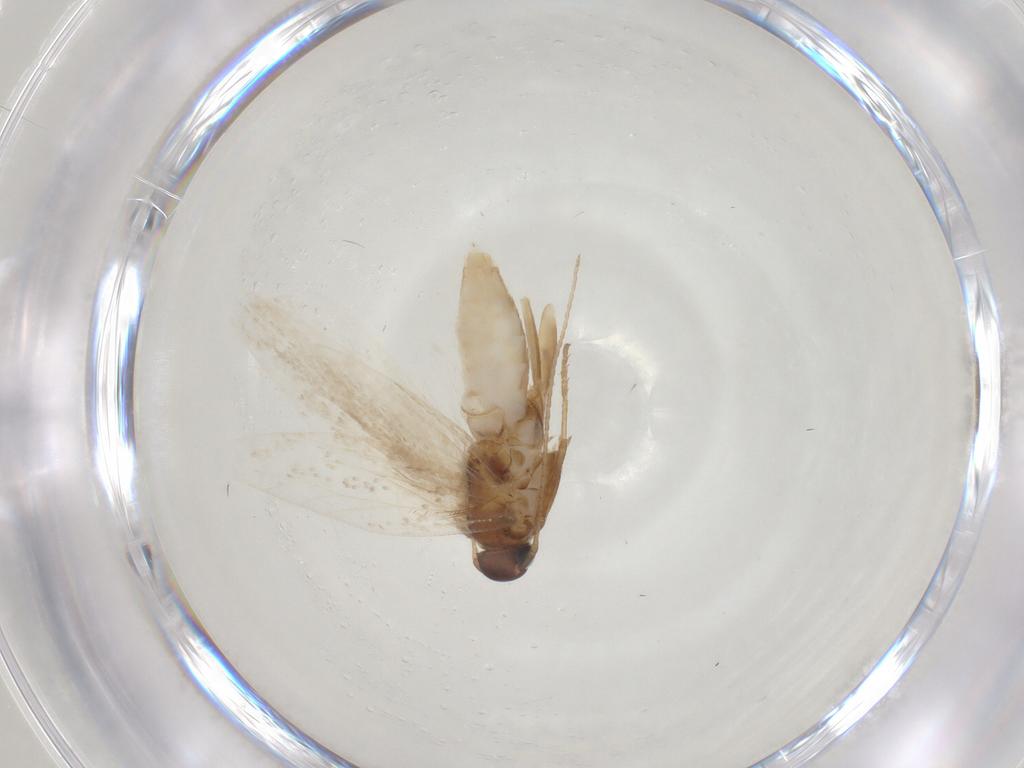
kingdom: Animalia
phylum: Arthropoda
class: Insecta
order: Lepidoptera
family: Gelechiidae
